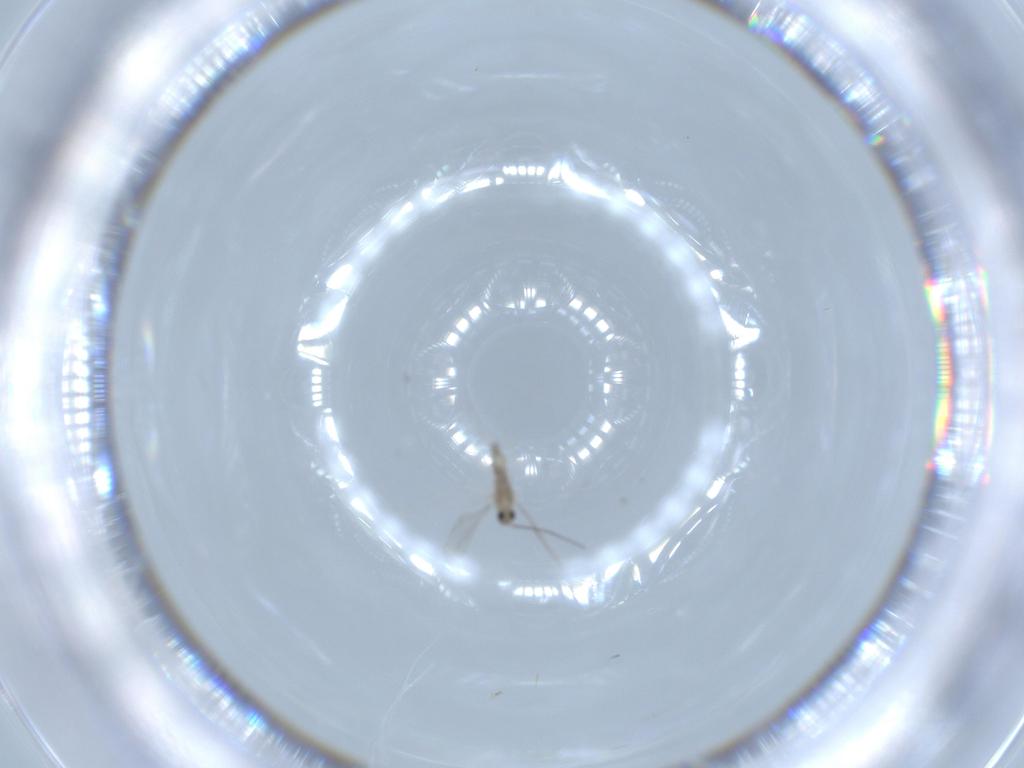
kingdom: Animalia
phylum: Arthropoda
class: Insecta
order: Diptera
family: Cecidomyiidae
